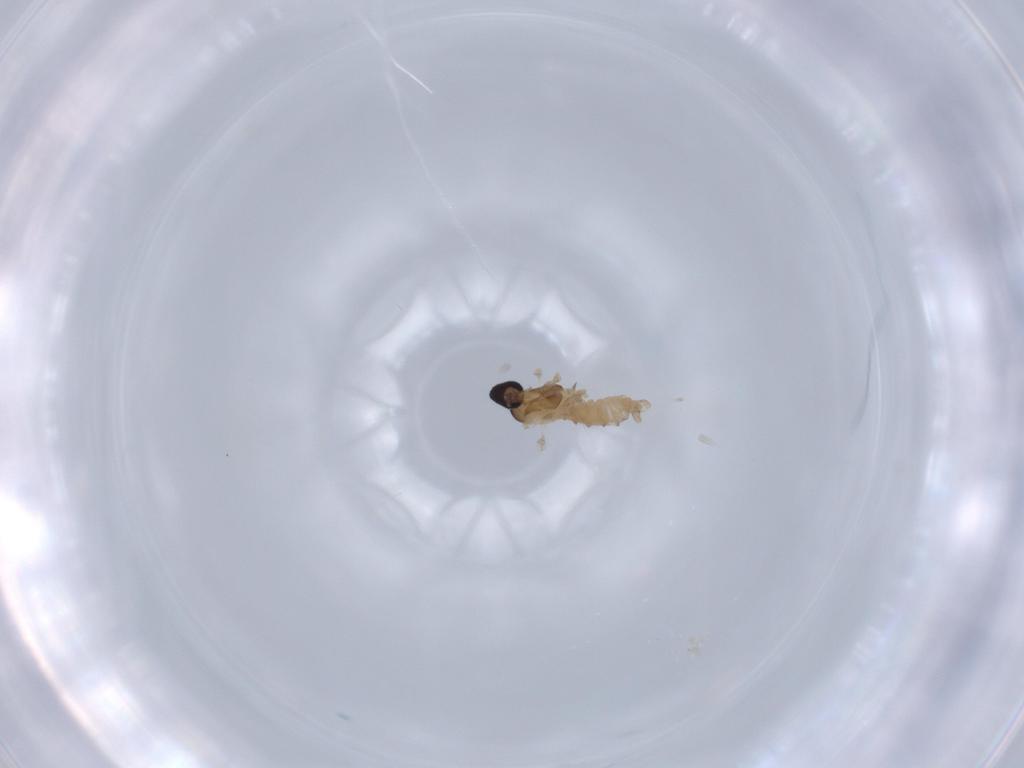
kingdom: Animalia
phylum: Arthropoda
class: Insecta
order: Diptera
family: Cecidomyiidae
